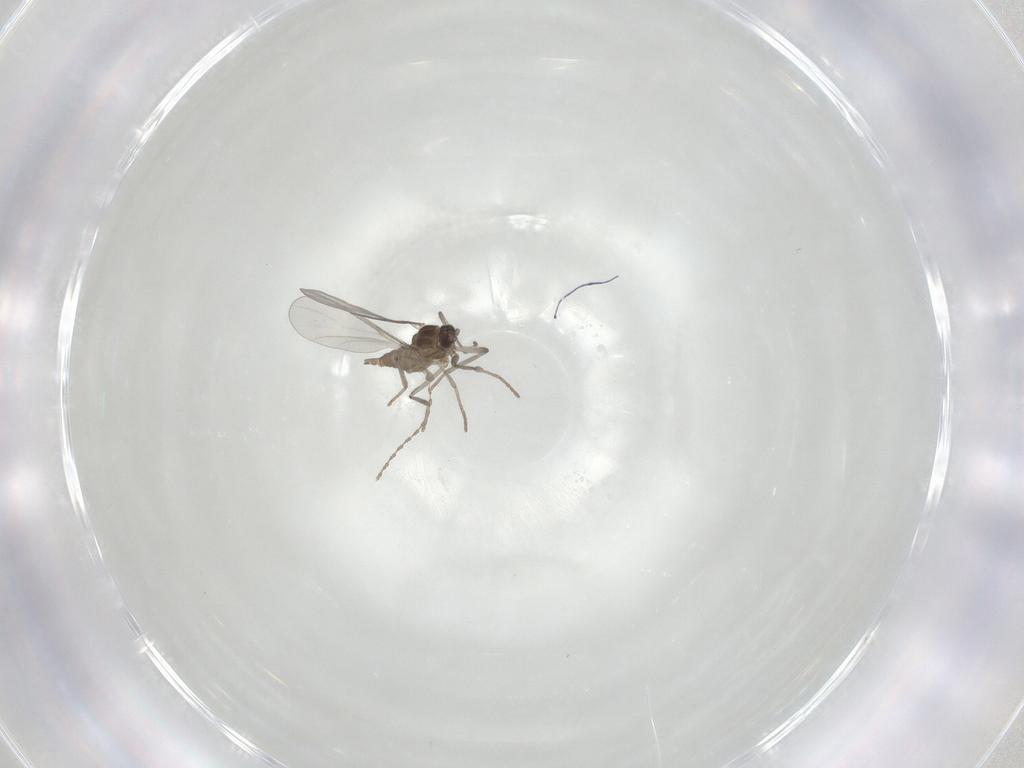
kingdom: Animalia
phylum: Arthropoda
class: Insecta
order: Diptera
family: Cecidomyiidae
